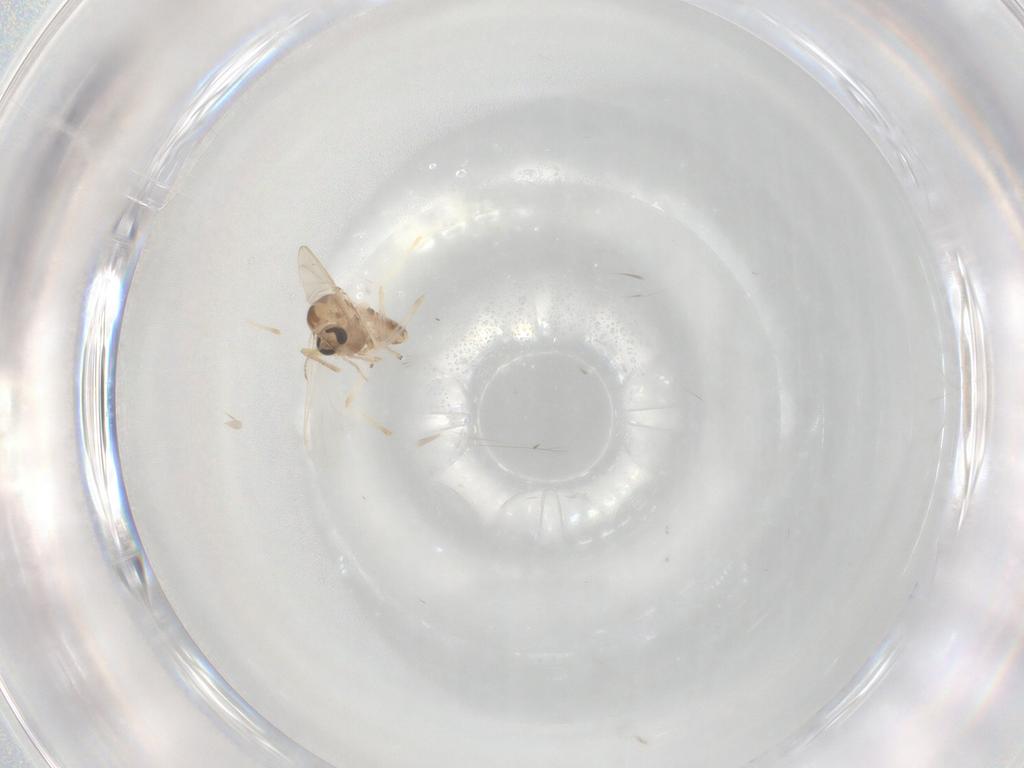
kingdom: Animalia
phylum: Arthropoda
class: Insecta
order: Diptera
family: Chironomidae
